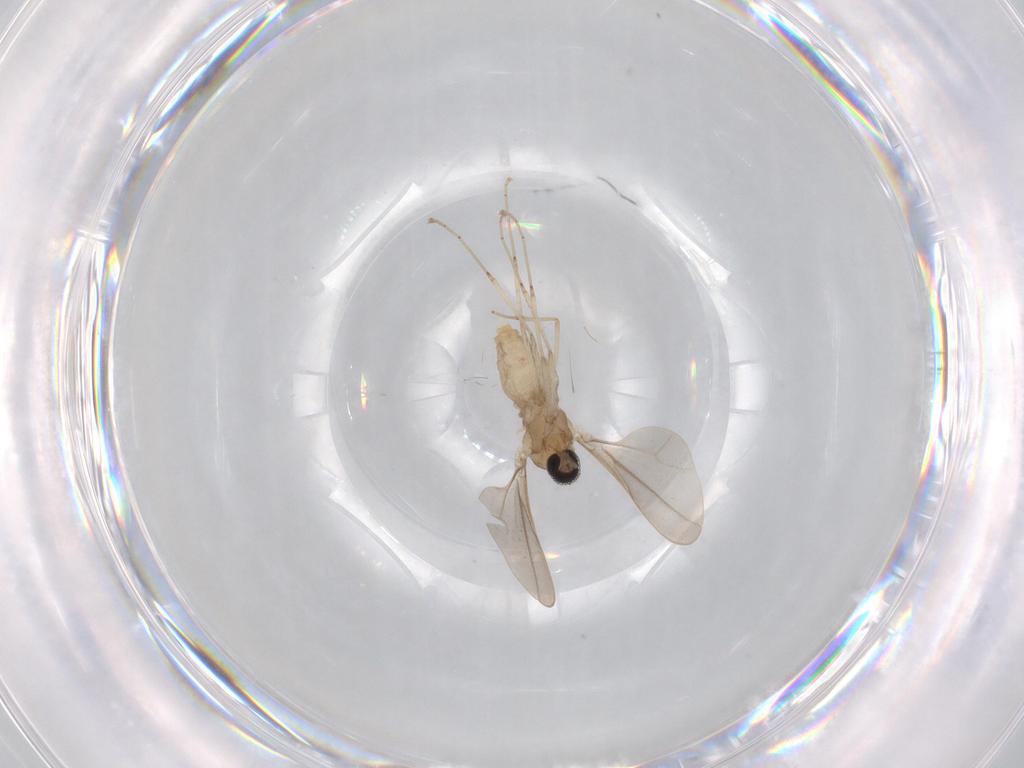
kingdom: Animalia
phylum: Arthropoda
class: Insecta
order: Diptera
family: Cecidomyiidae
